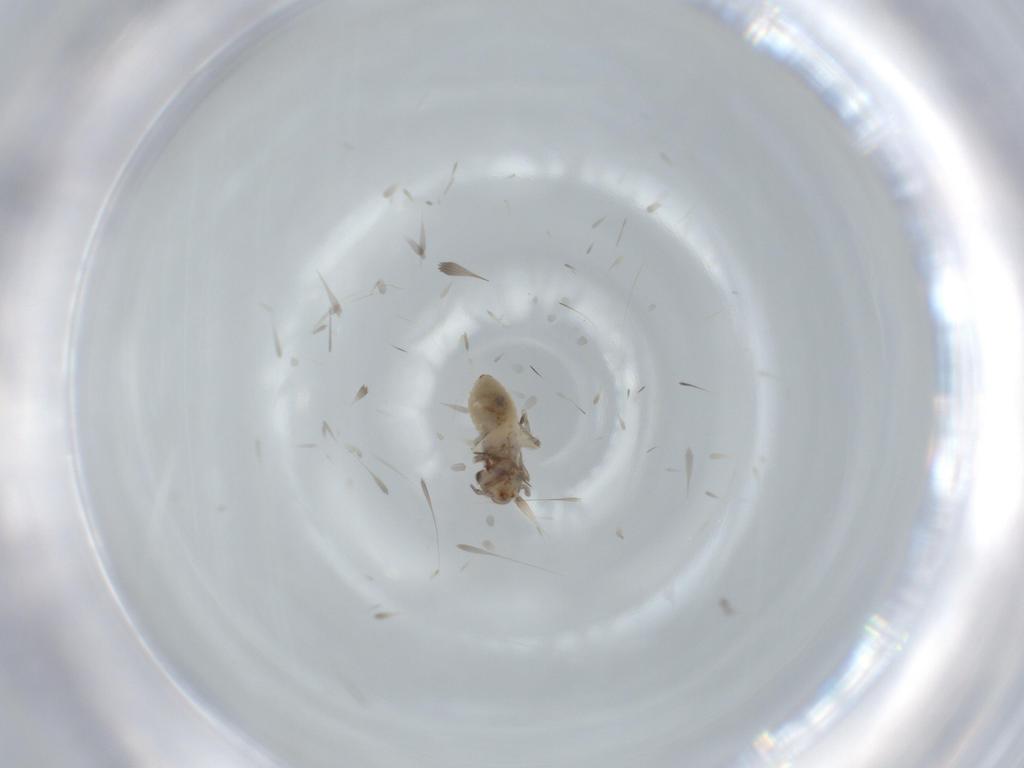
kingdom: Animalia
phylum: Arthropoda
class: Insecta
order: Psocodea
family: Lepidopsocidae
